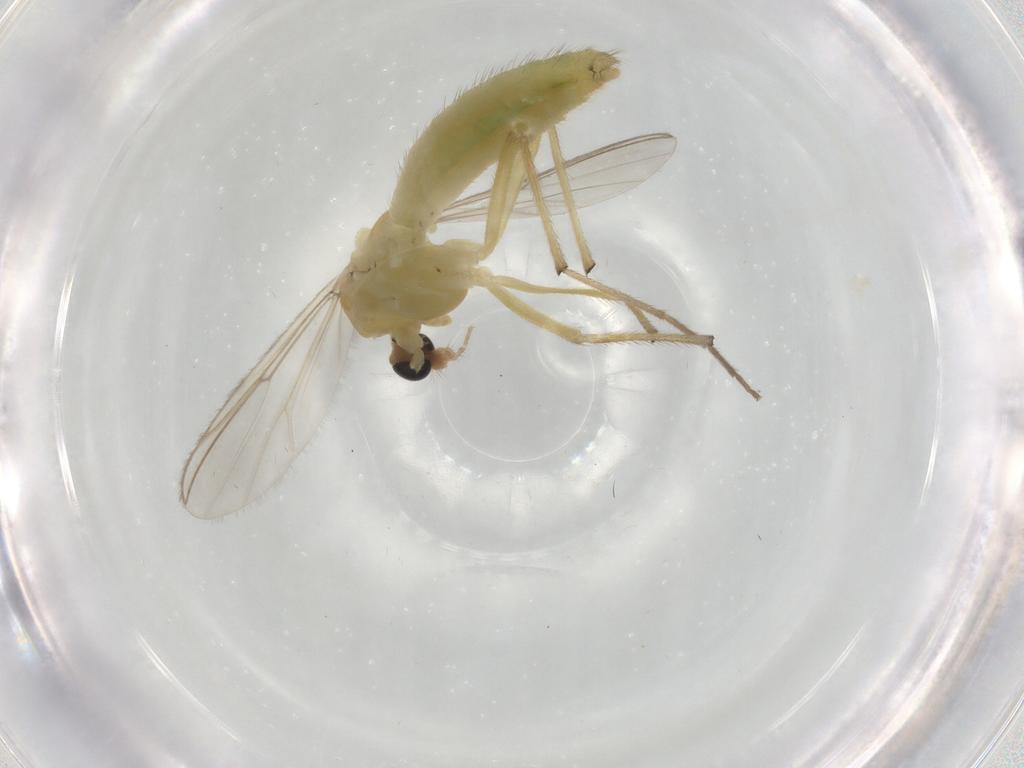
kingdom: Animalia
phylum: Arthropoda
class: Insecta
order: Diptera
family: Chironomidae
